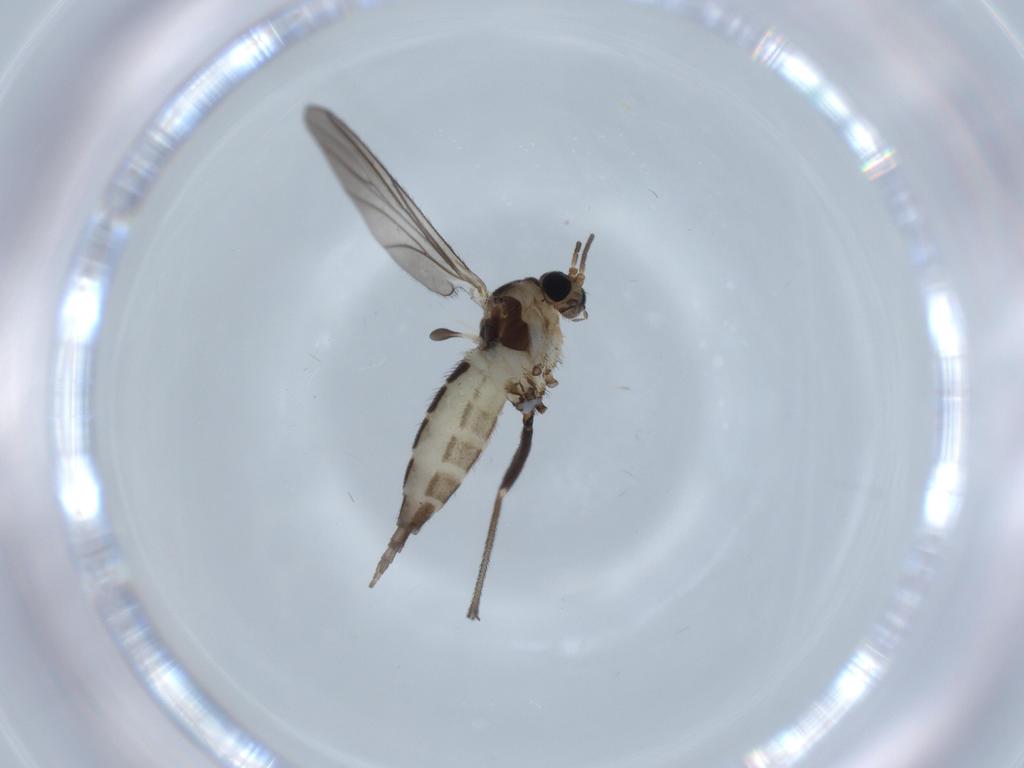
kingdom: Animalia
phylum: Arthropoda
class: Insecta
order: Diptera
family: Sciaridae
